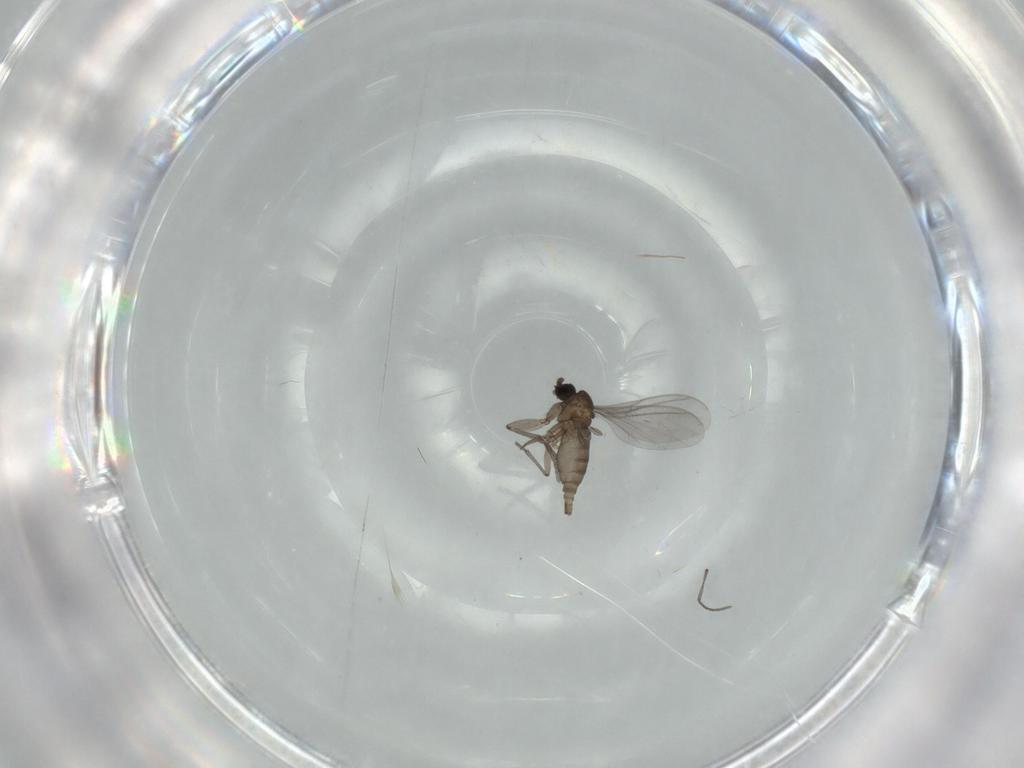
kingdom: Animalia
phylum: Arthropoda
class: Insecta
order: Diptera
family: Sciaridae
